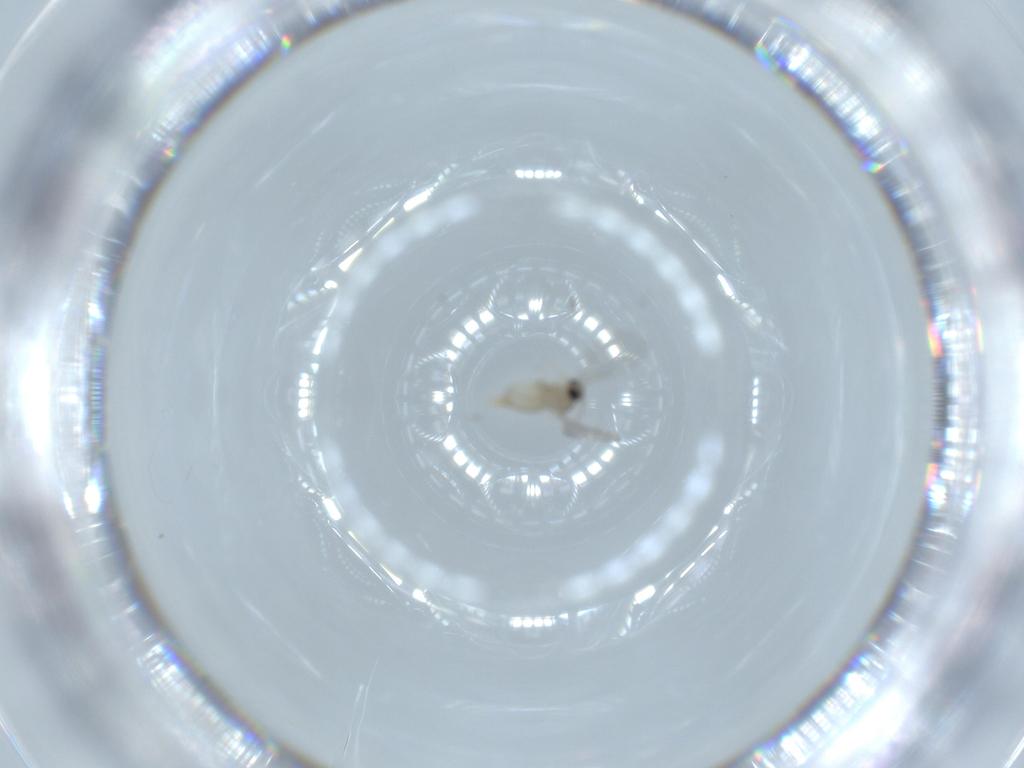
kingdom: Animalia
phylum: Arthropoda
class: Insecta
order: Diptera
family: Cecidomyiidae
